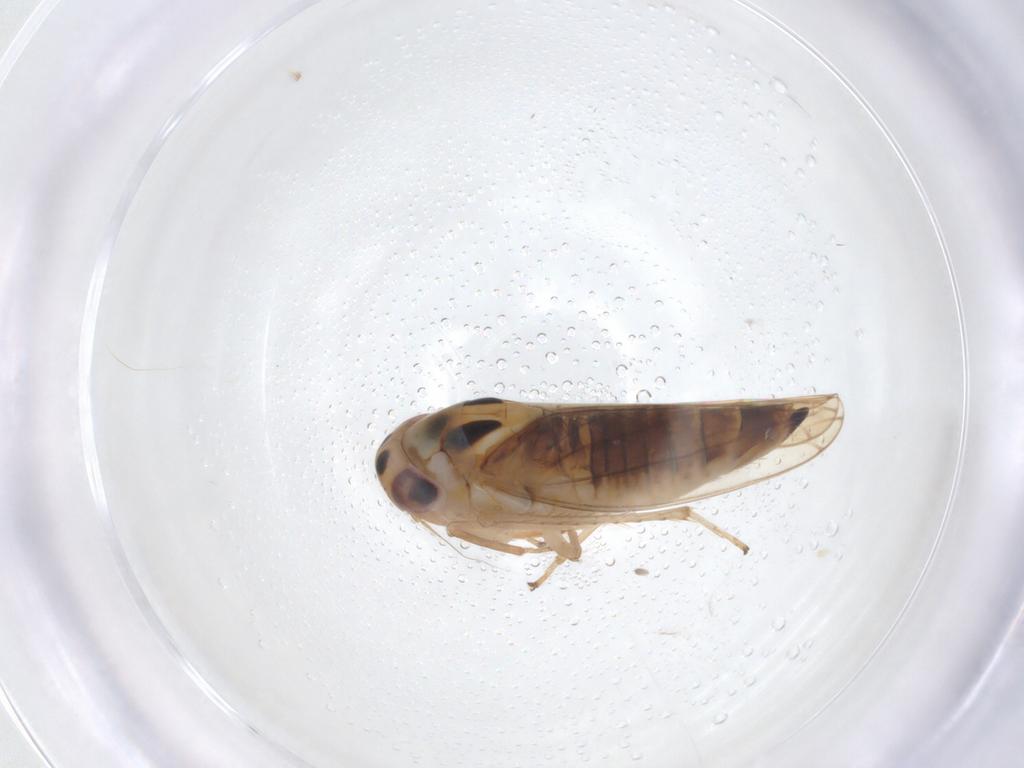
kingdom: Animalia
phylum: Arthropoda
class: Insecta
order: Hemiptera
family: Cicadellidae
